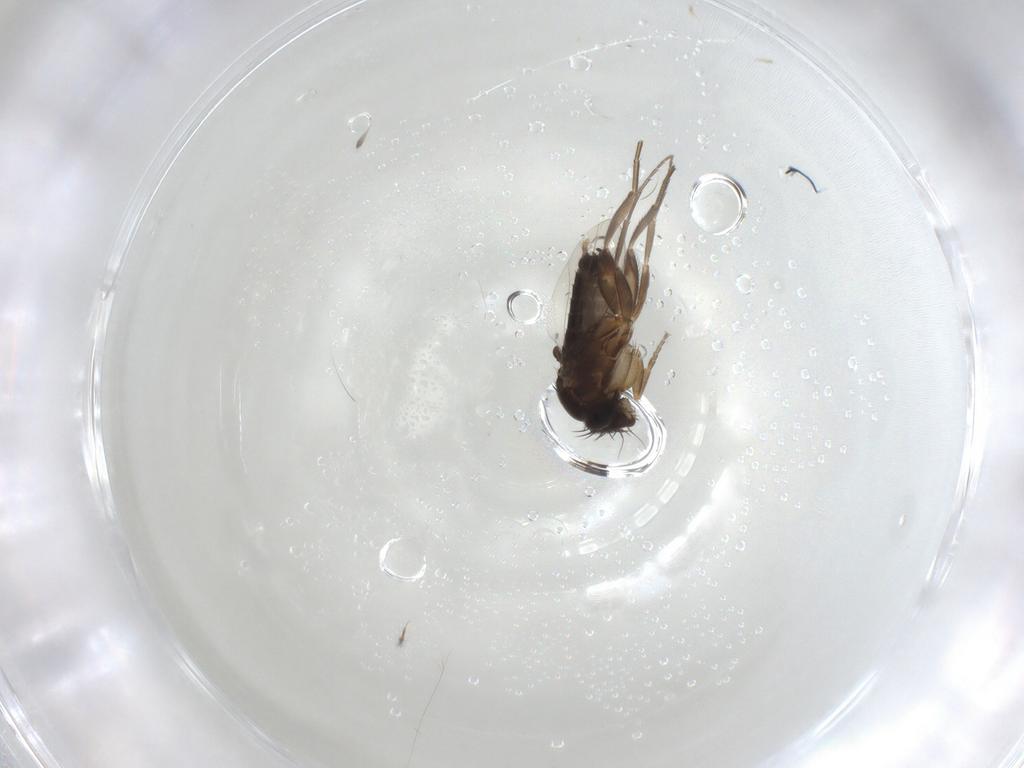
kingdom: Animalia
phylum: Arthropoda
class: Insecta
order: Diptera
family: Phoridae
